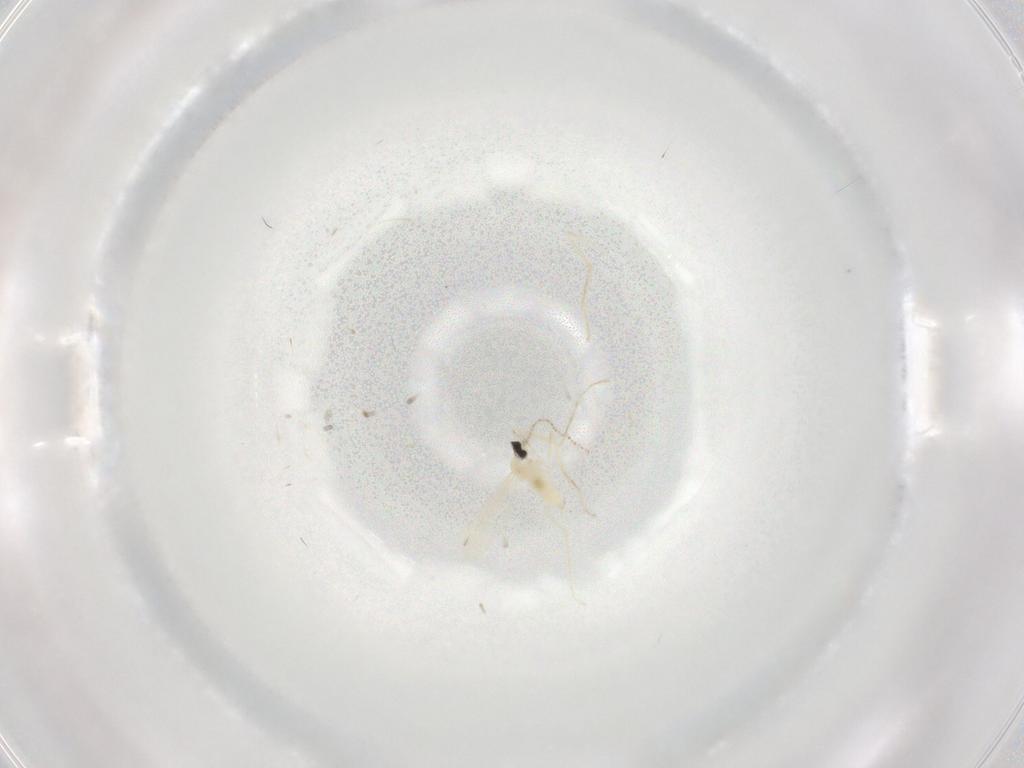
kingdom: Animalia
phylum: Arthropoda
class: Insecta
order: Diptera
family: Cecidomyiidae
